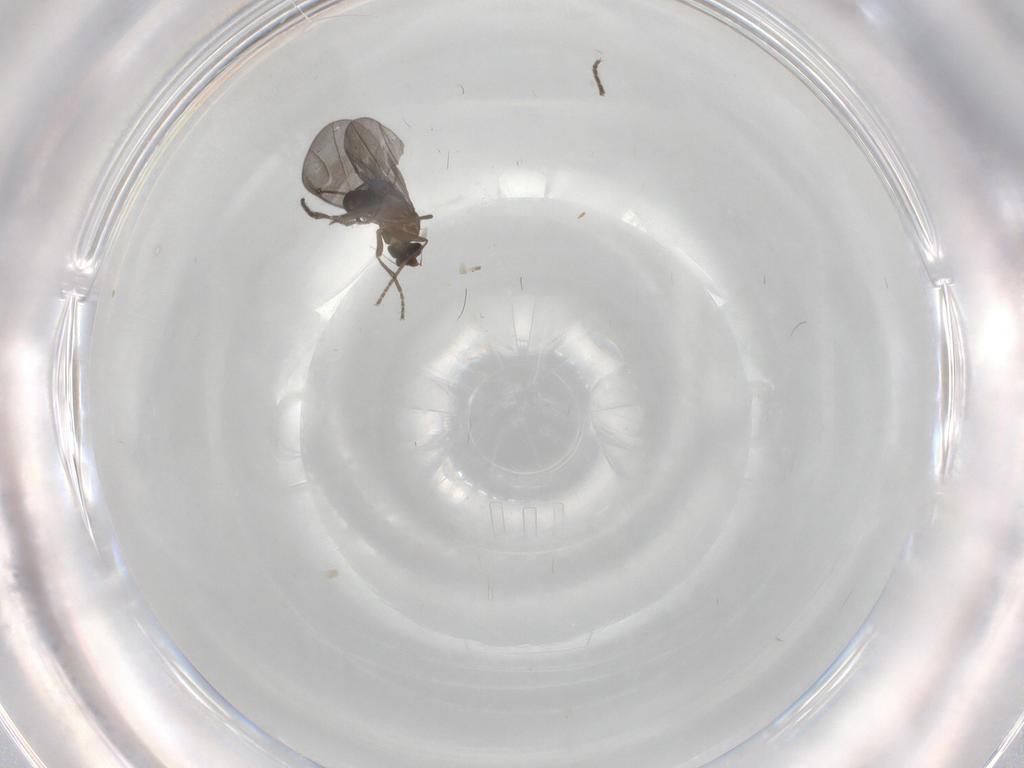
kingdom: Animalia
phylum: Arthropoda
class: Insecta
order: Diptera
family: Phoridae
